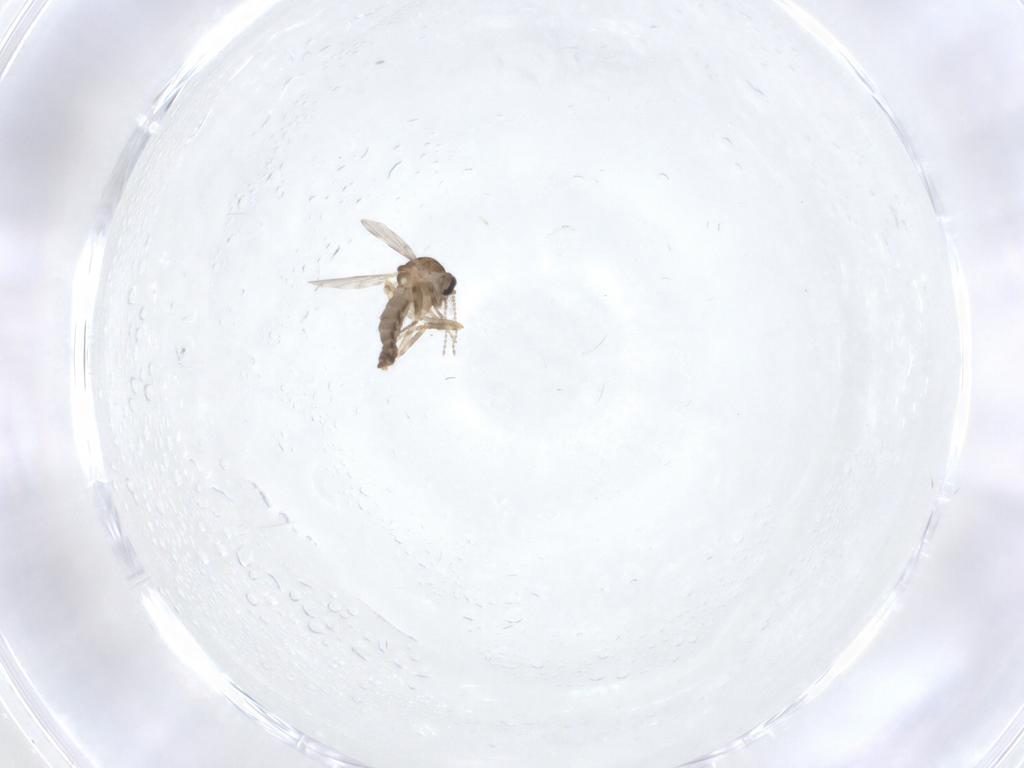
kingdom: Animalia
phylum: Arthropoda
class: Insecta
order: Diptera
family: Ceratopogonidae
